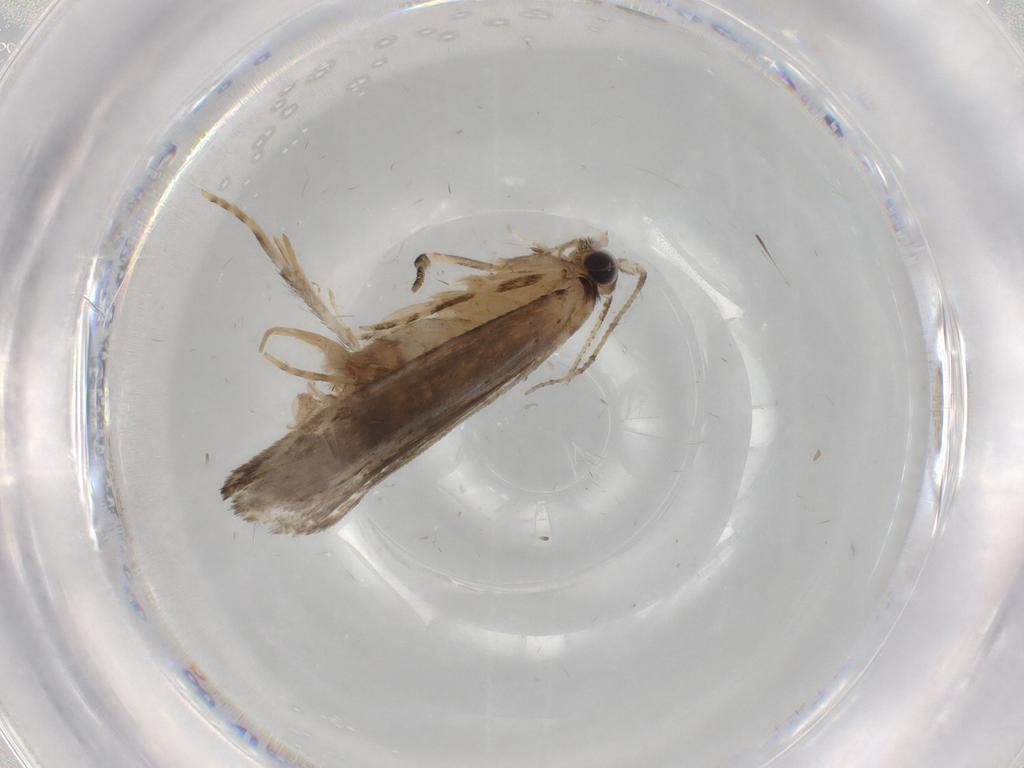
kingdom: Animalia
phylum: Arthropoda
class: Insecta
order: Lepidoptera
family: Tineidae
